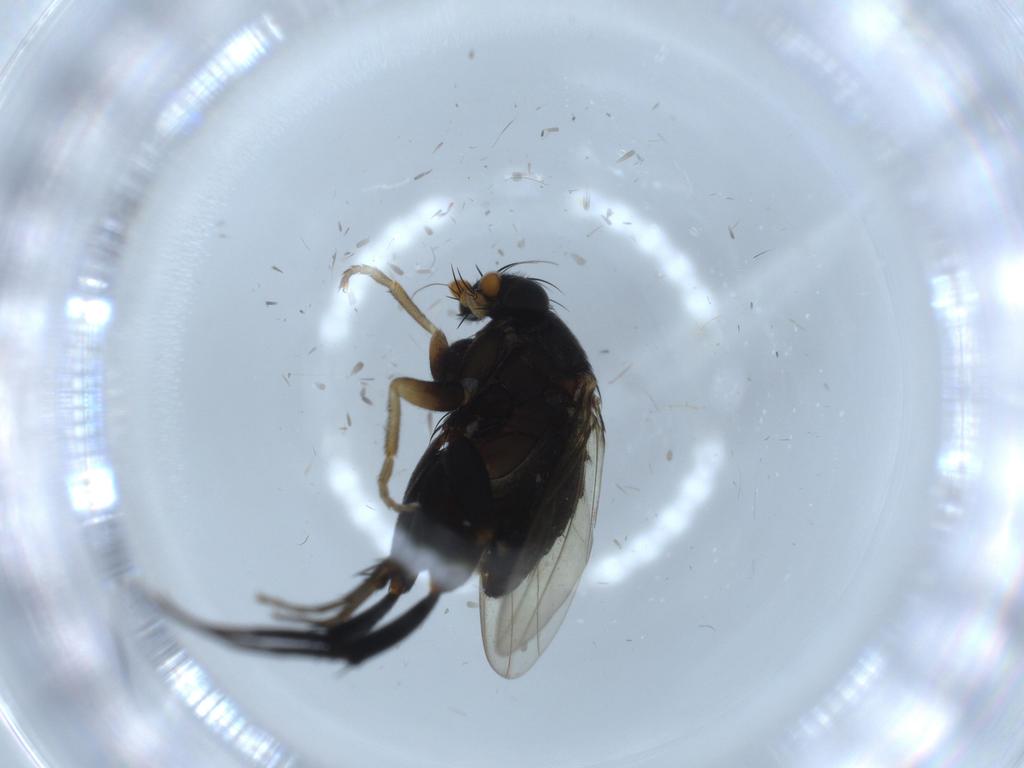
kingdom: Animalia
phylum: Arthropoda
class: Insecta
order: Diptera
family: Phoridae
